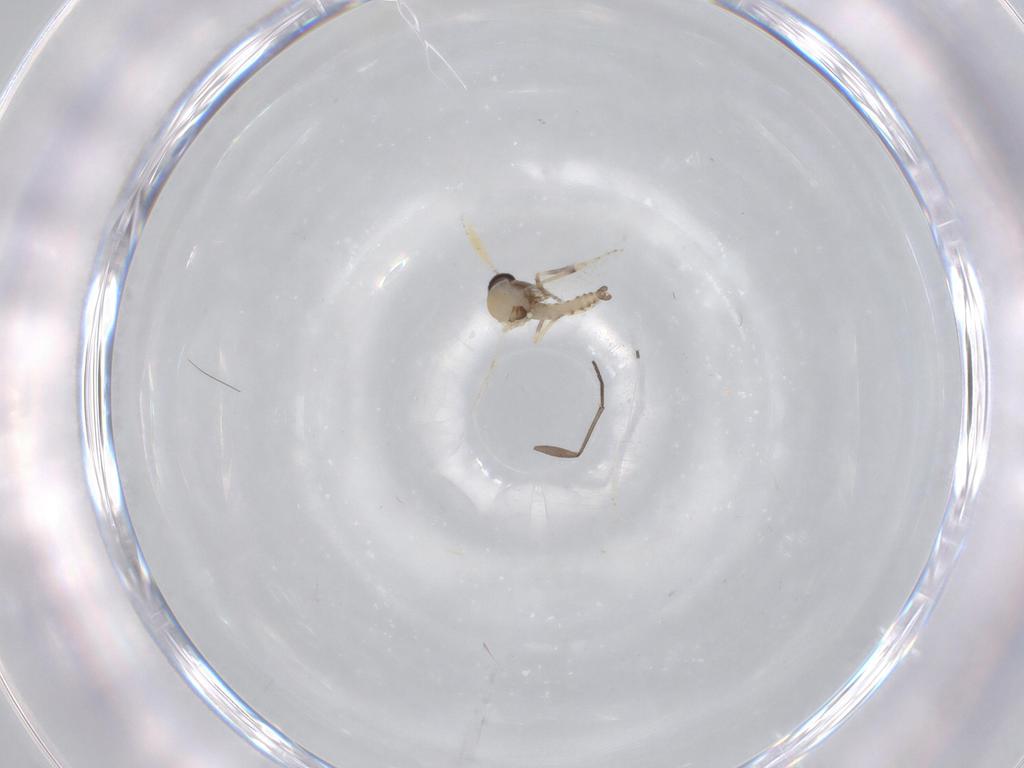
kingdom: Animalia
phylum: Arthropoda
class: Insecta
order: Diptera
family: Ceratopogonidae
